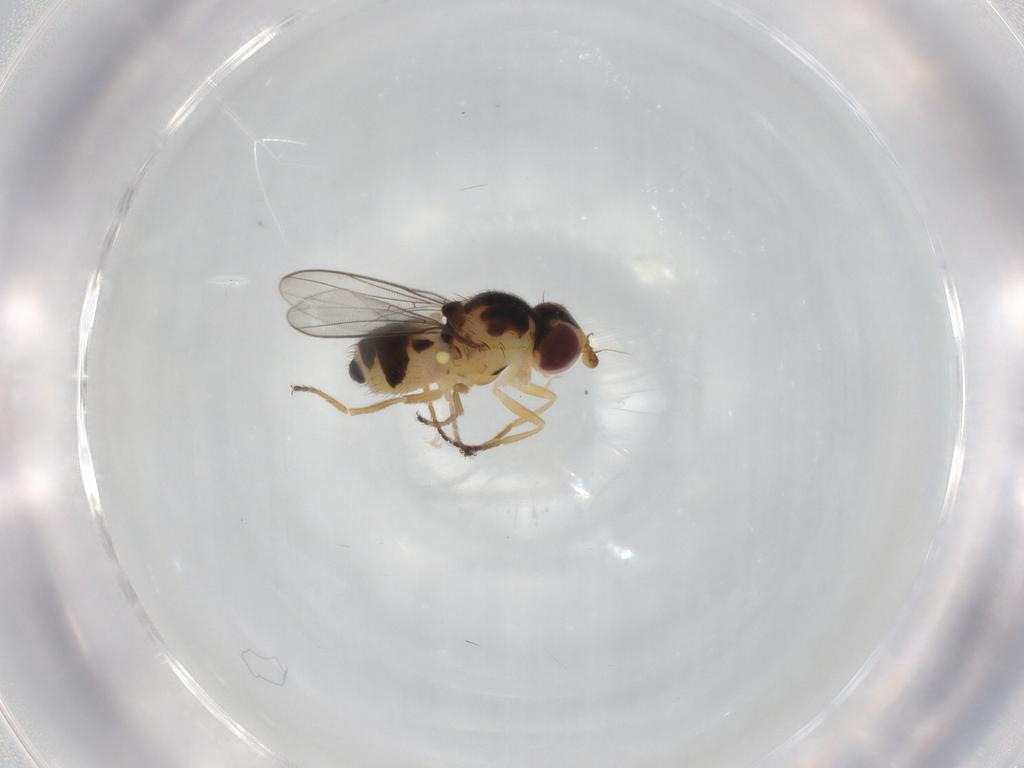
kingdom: Animalia
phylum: Arthropoda
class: Insecta
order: Diptera
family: Chloropidae
